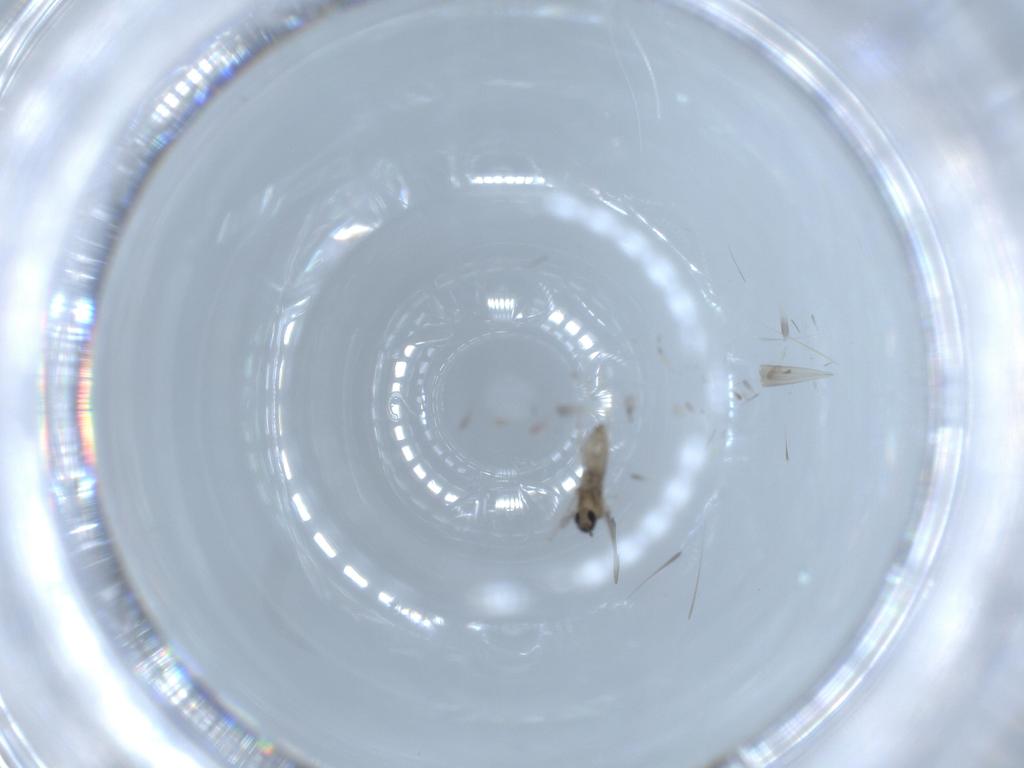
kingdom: Animalia
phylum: Arthropoda
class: Insecta
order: Diptera
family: Cecidomyiidae
